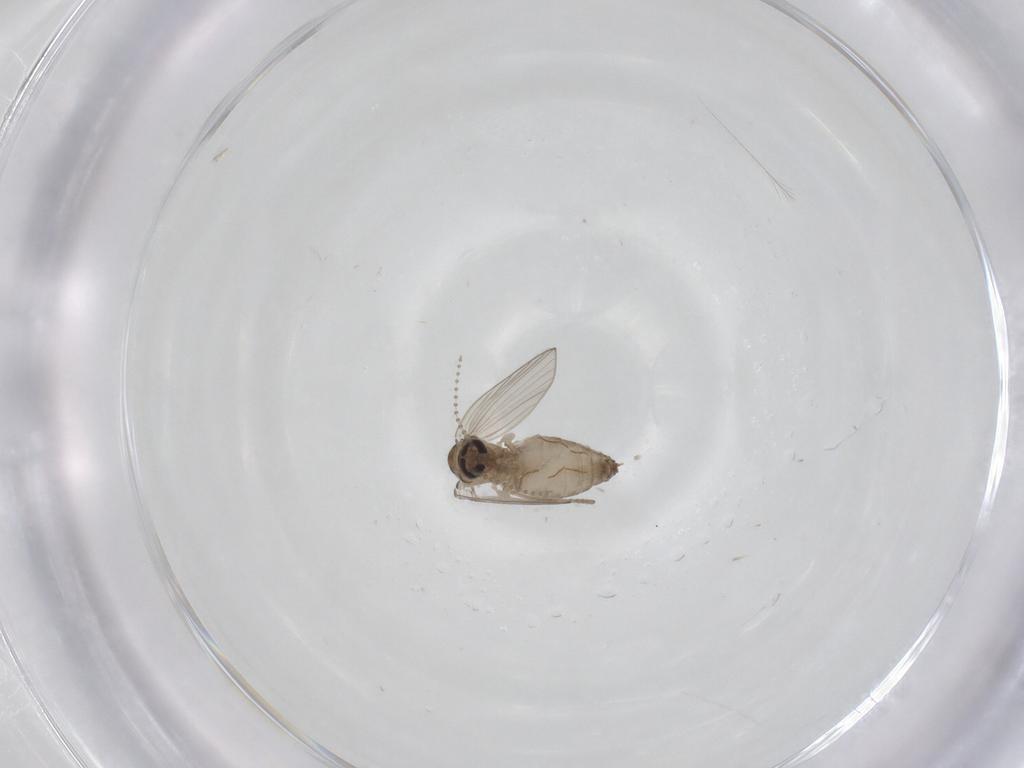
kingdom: Animalia
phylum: Arthropoda
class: Insecta
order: Diptera
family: Psychodidae
